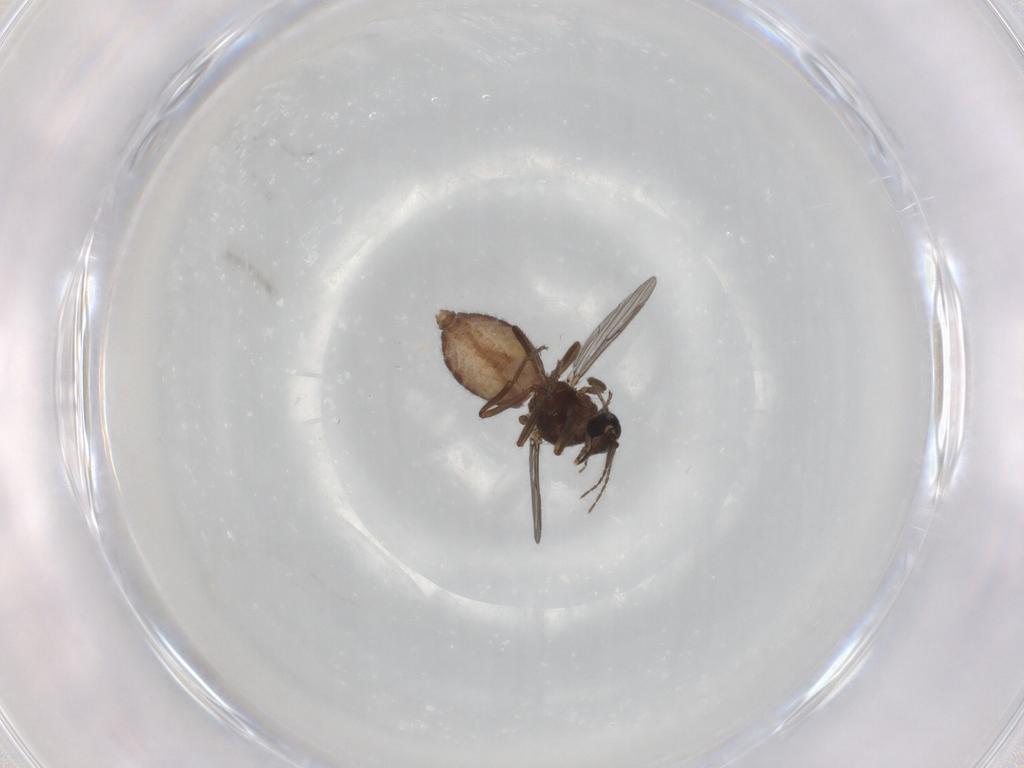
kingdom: Animalia
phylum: Arthropoda
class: Insecta
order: Diptera
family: Ceratopogonidae
